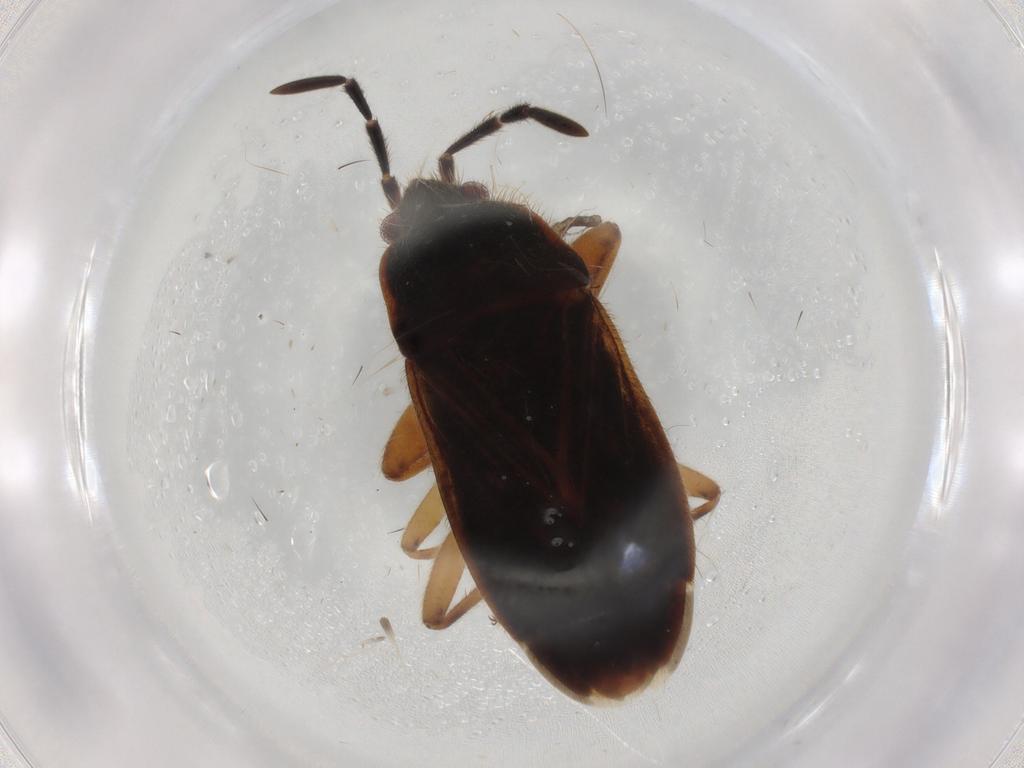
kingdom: Animalia
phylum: Arthropoda
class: Insecta
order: Hemiptera
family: Rhyparochromidae
